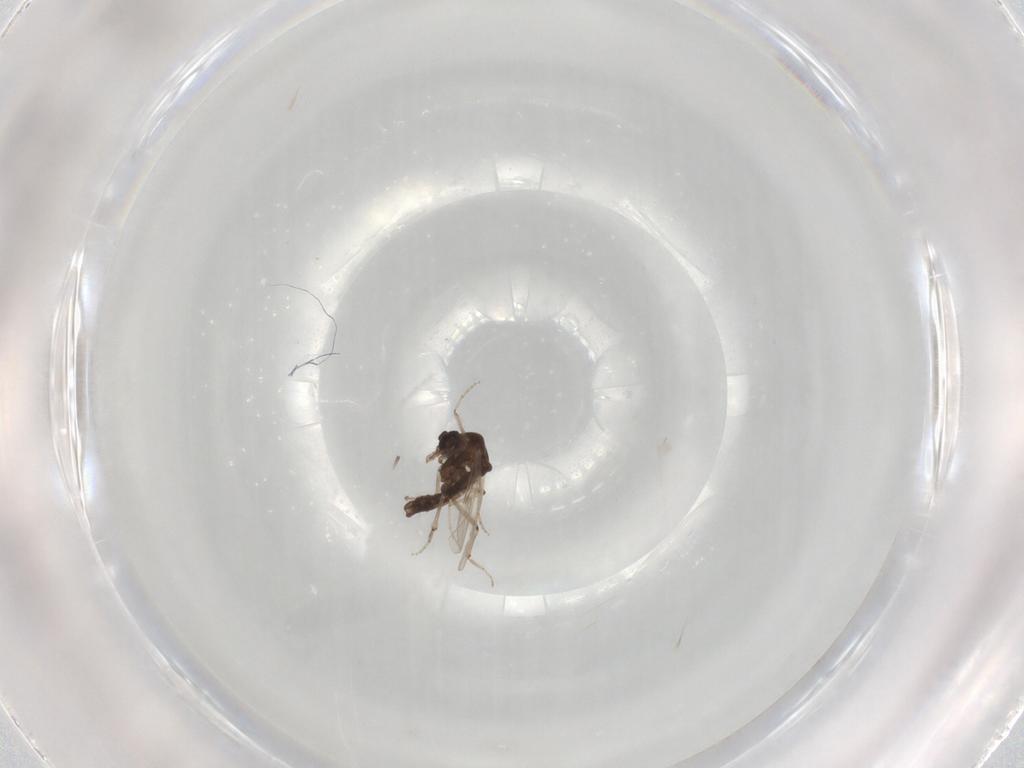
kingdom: Animalia
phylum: Arthropoda
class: Insecta
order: Diptera
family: Ceratopogonidae
